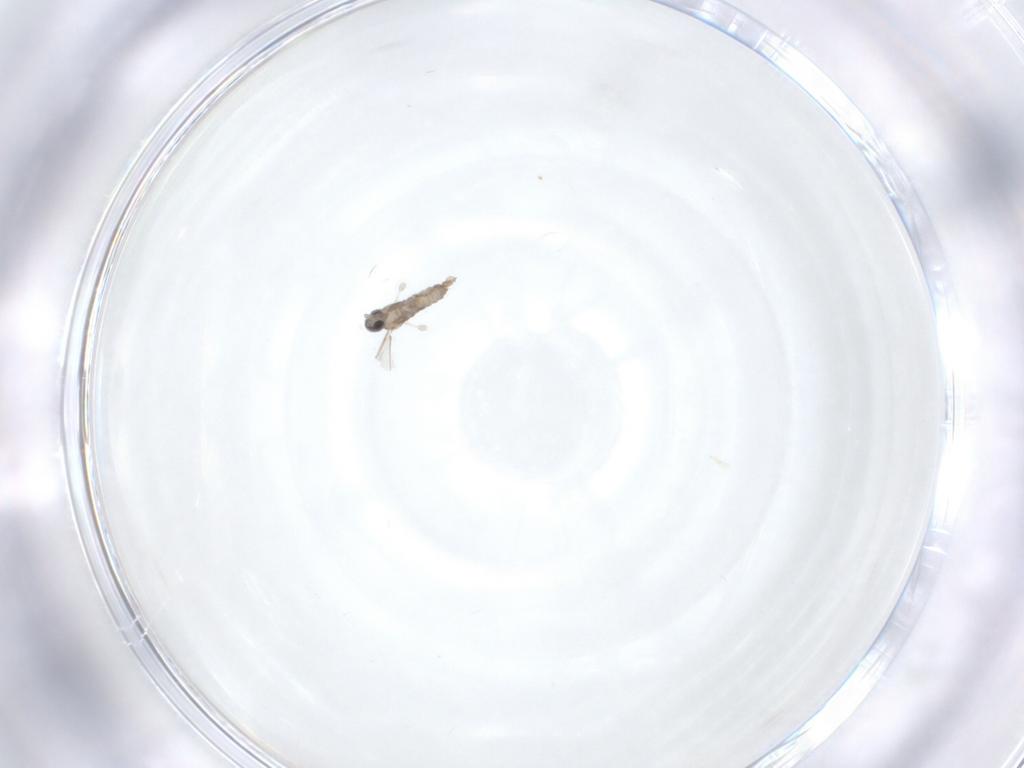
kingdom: Animalia
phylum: Arthropoda
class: Insecta
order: Diptera
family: Cecidomyiidae
